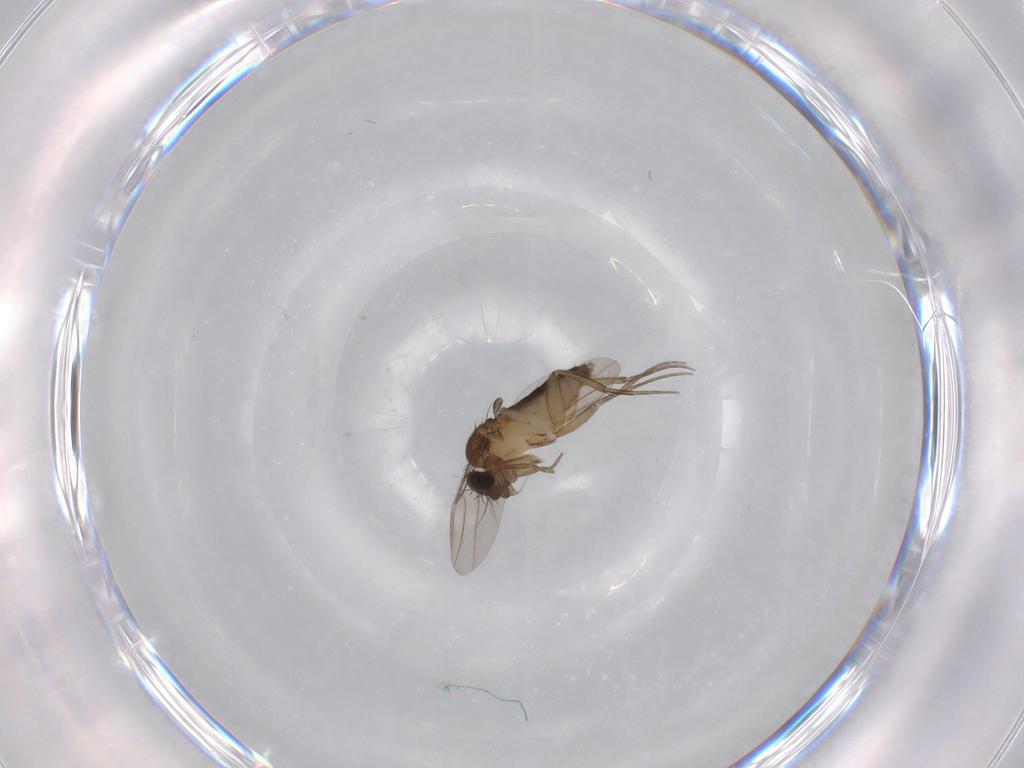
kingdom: Animalia
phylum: Arthropoda
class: Insecta
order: Diptera
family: Phoridae
